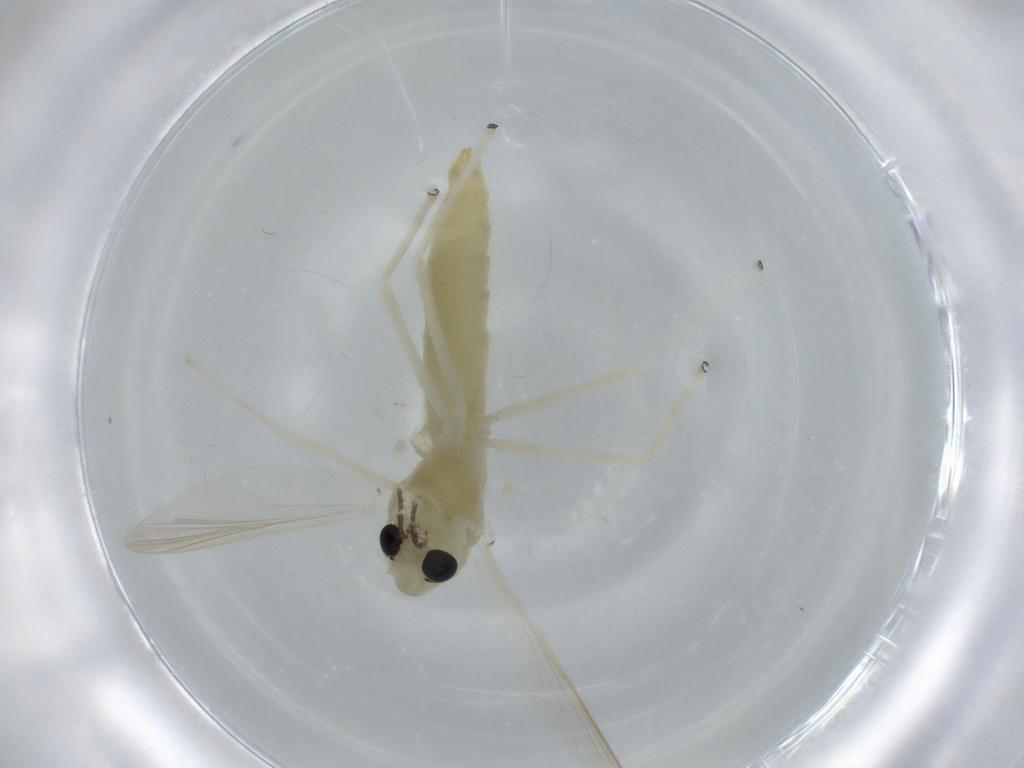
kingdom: Animalia
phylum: Arthropoda
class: Insecta
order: Diptera
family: Chironomidae
